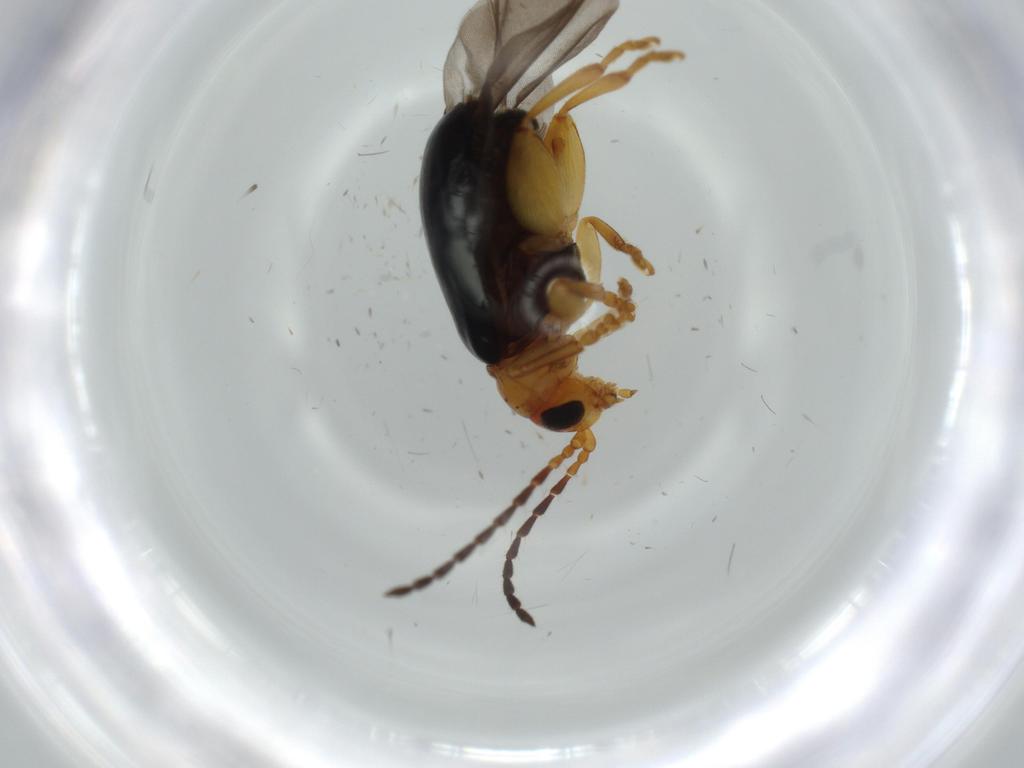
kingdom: Animalia
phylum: Arthropoda
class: Insecta
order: Coleoptera
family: Chrysomelidae
